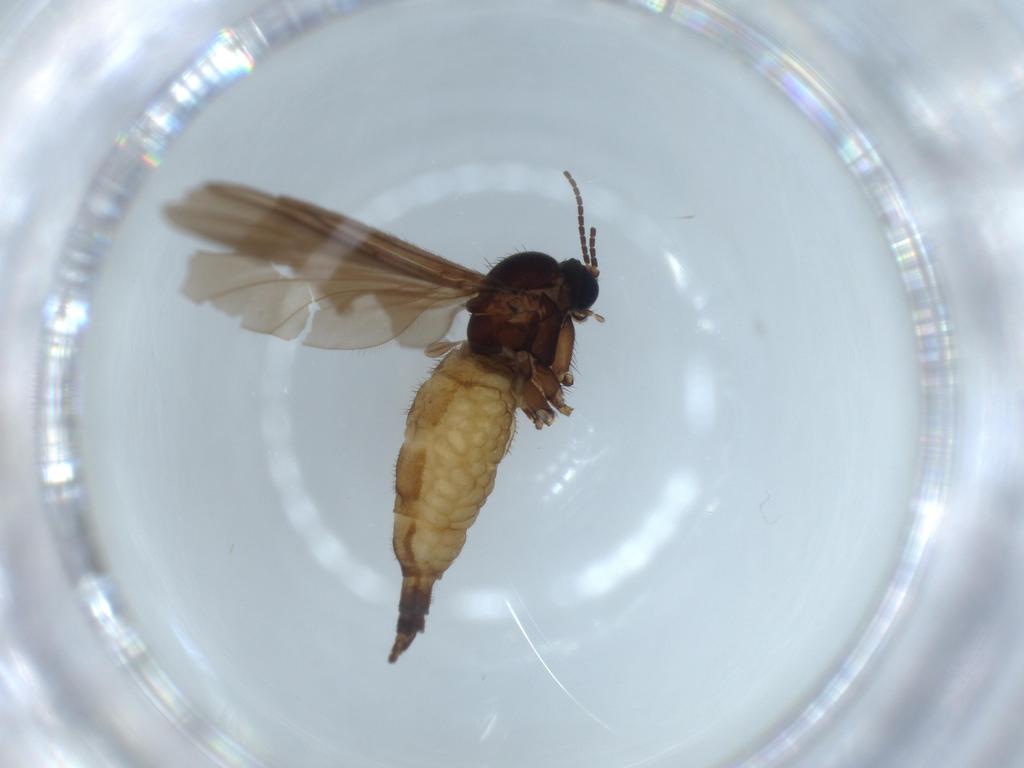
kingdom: Animalia
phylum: Arthropoda
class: Insecta
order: Diptera
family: Sciaridae
